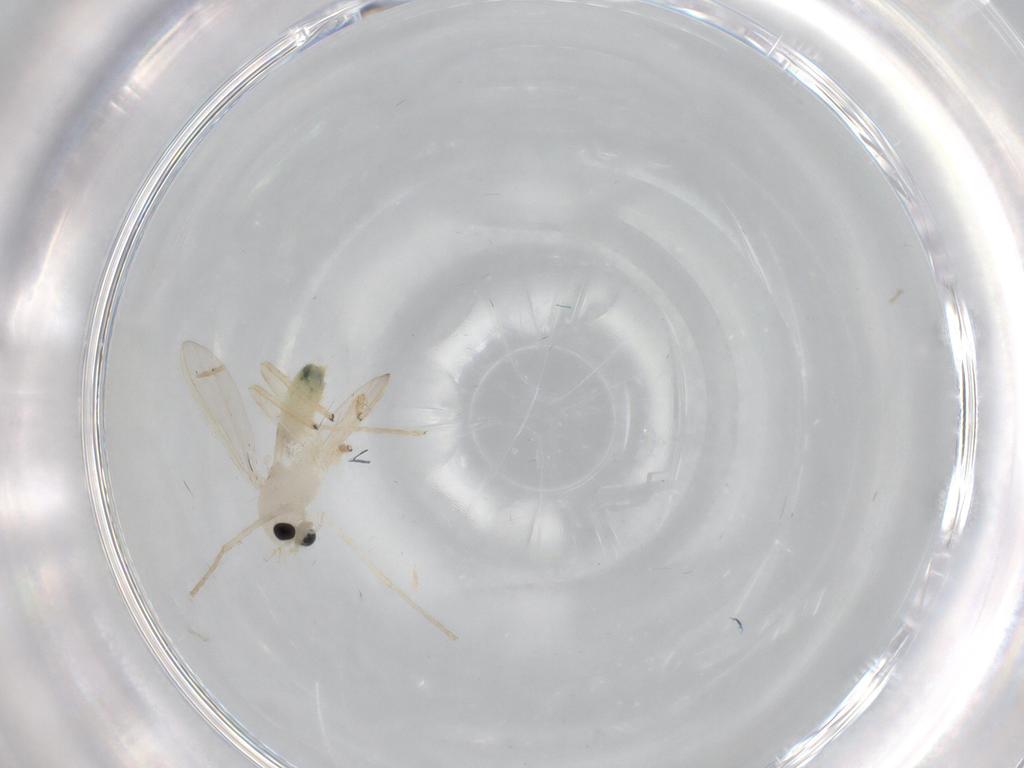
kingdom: Animalia
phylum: Arthropoda
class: Insecta
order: Diptera
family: Chironomidae
